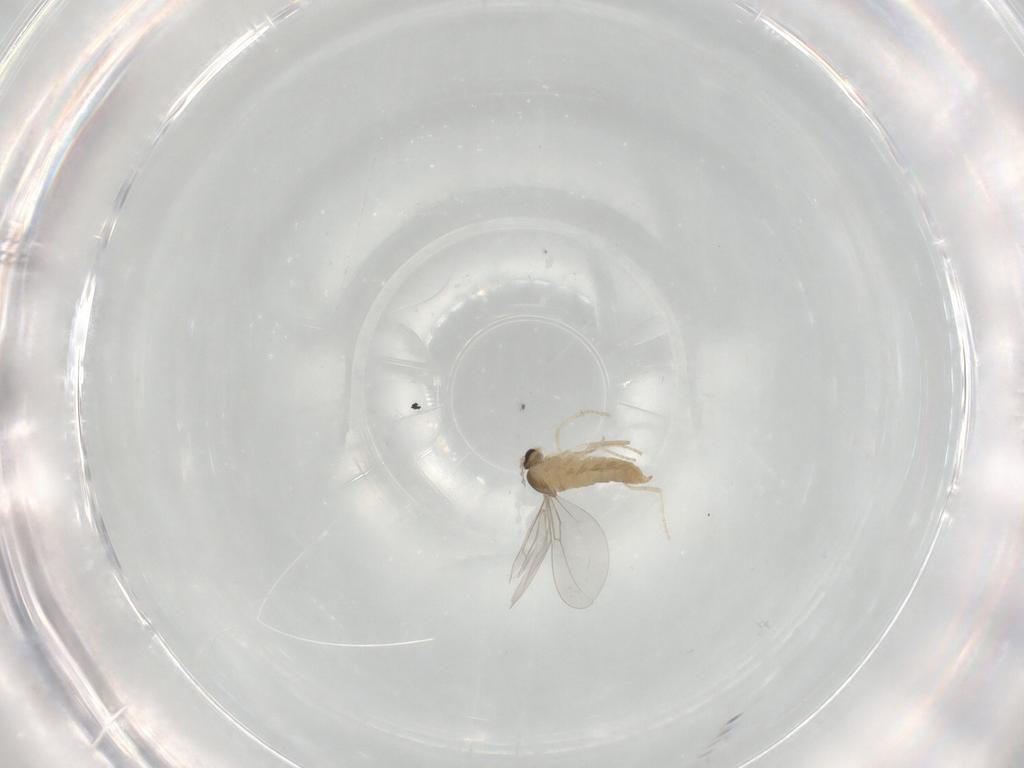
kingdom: Animalia
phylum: Arthropoda
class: Insecta
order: Diptera
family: Cecidomyiidae
